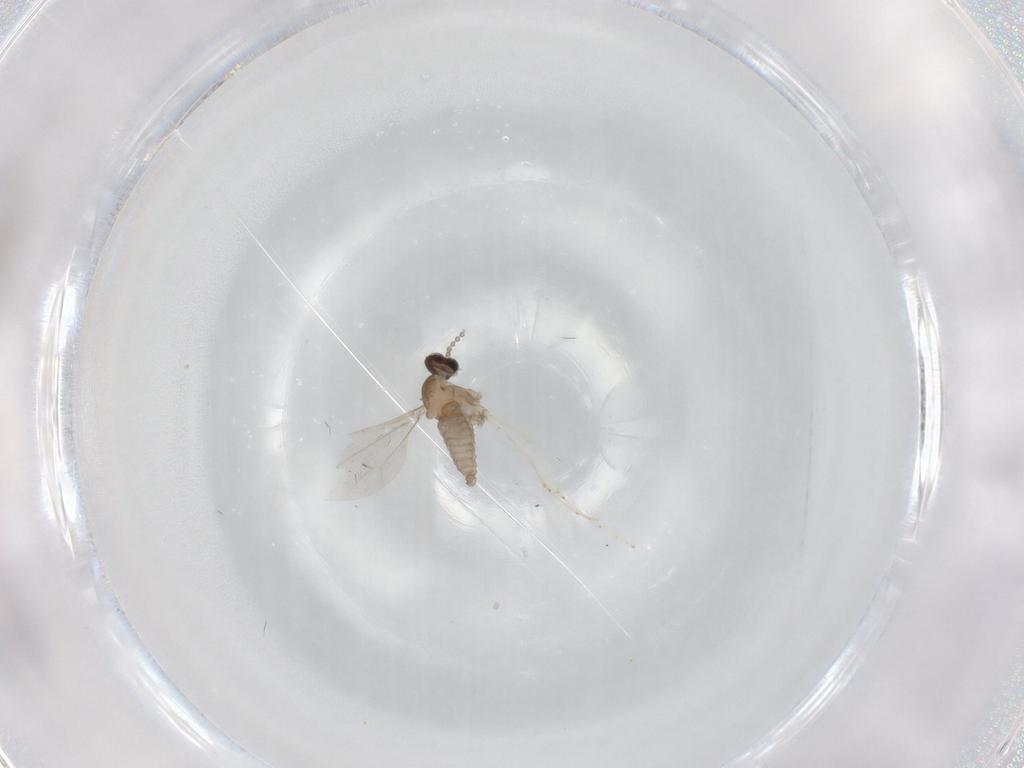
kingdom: Animalia
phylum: Arthropoda
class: Insecta
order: Diptera
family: Cecidomyiidae
